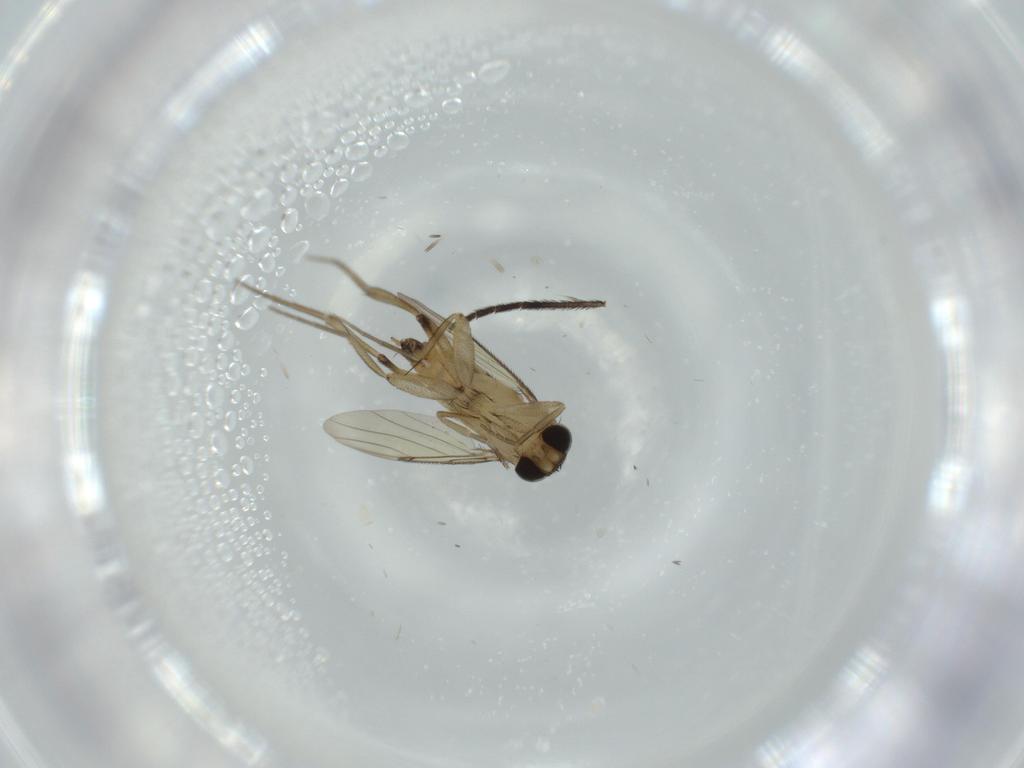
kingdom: Animalia
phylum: Arthropoda
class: Insecta
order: Diptera
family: Phoridae
